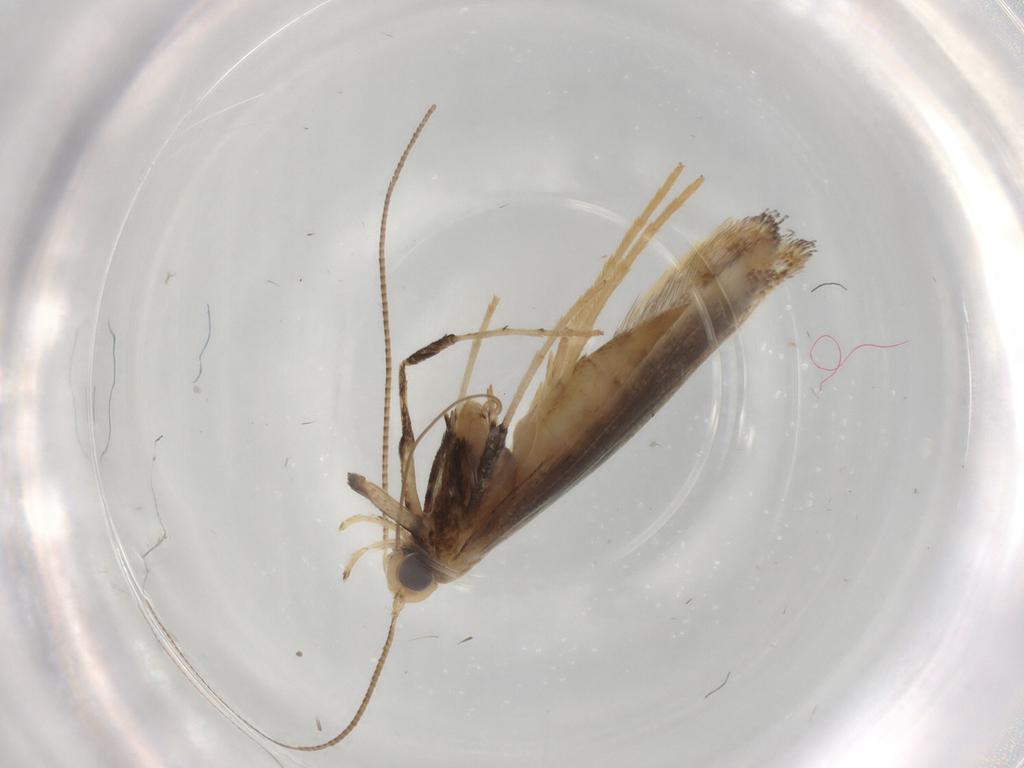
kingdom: Animalia
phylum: Arthropoda
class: Insecta
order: Lepidoptera
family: Gracillariidae
